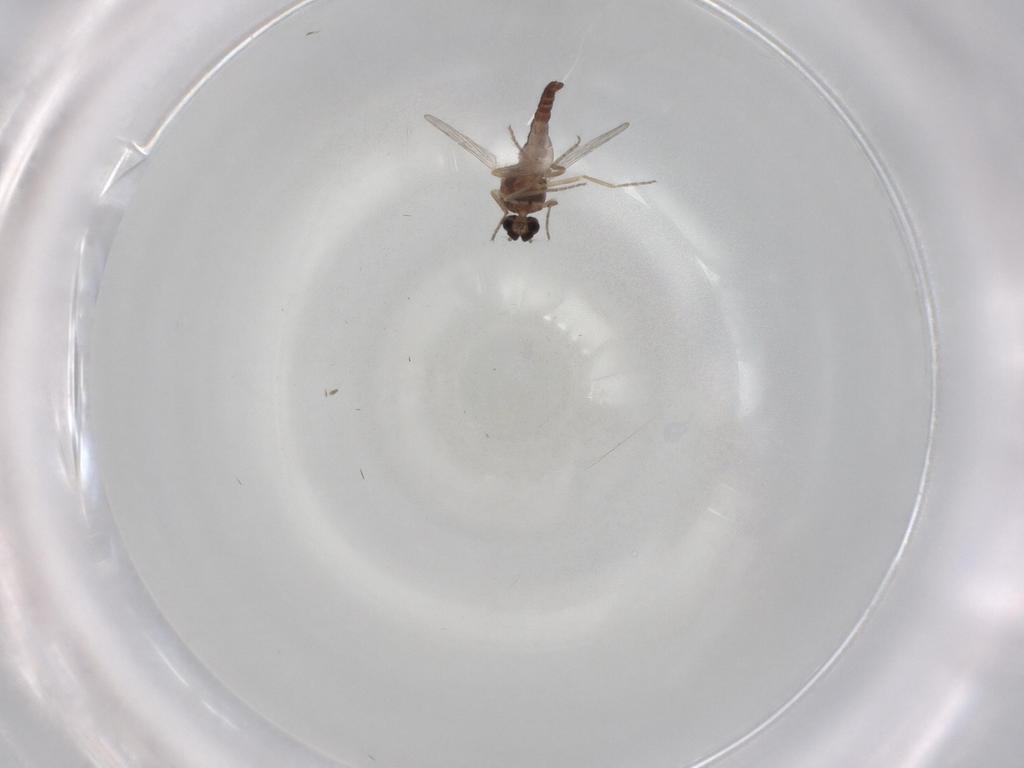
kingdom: Animalia
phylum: Arthropoda
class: Insecta
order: Diptera
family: Ceratopogonidae
